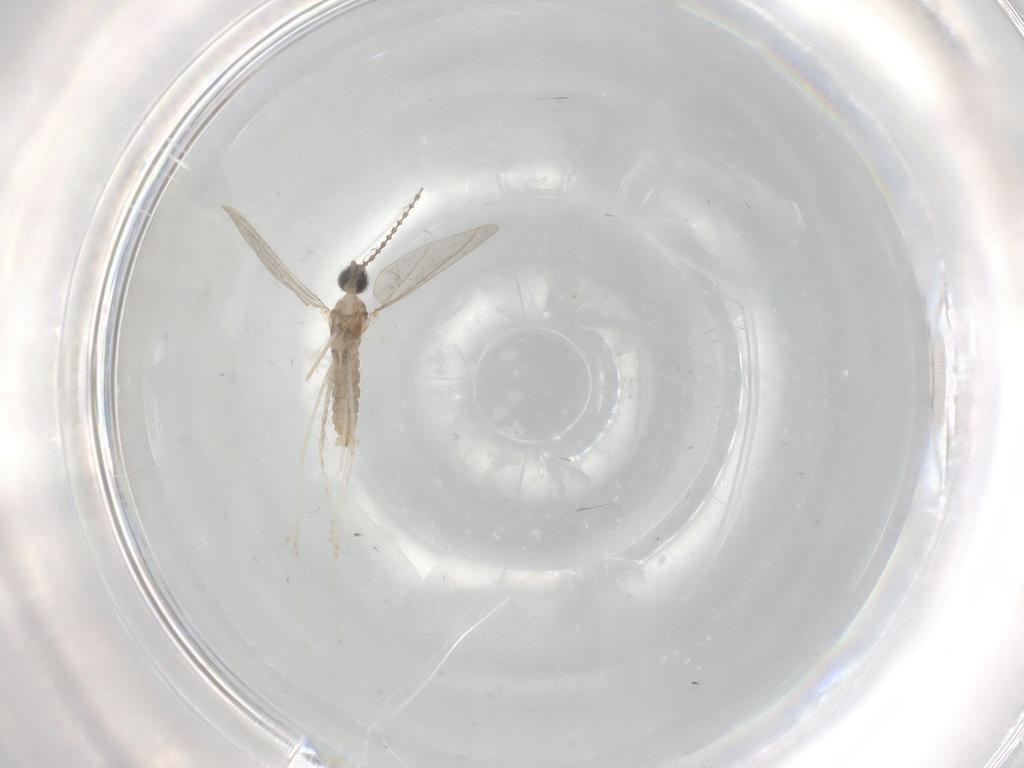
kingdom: Animalia
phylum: Arthropoda
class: Insecta
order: Diptera
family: Cecidomyiidae
